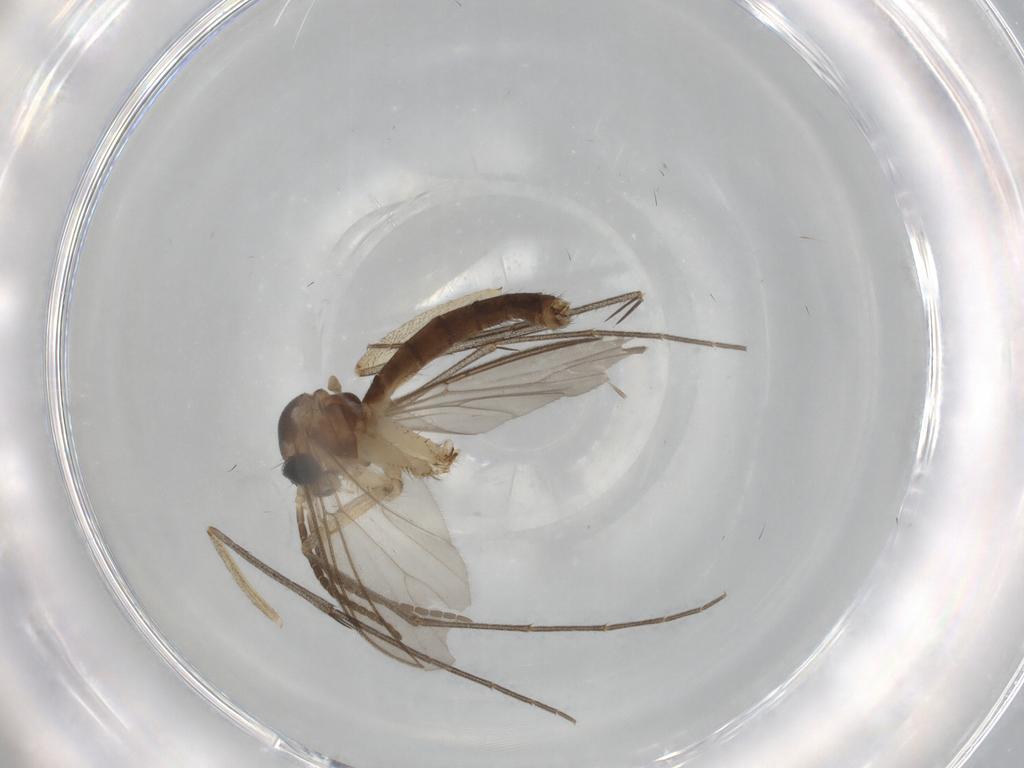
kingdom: Animalia
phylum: Arthropoda
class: Insecta
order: Diptera
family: Mycetophilidae
